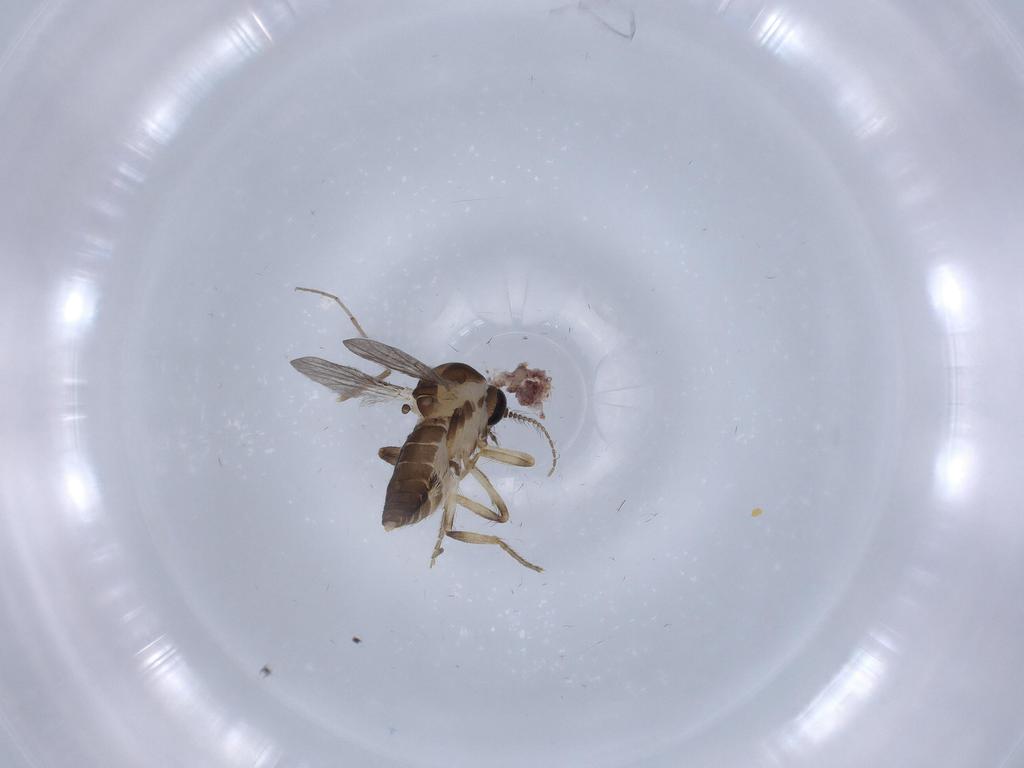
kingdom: Animalia
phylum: Arthropoda
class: Insecta
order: Diptera
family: Ceratopogonidae
